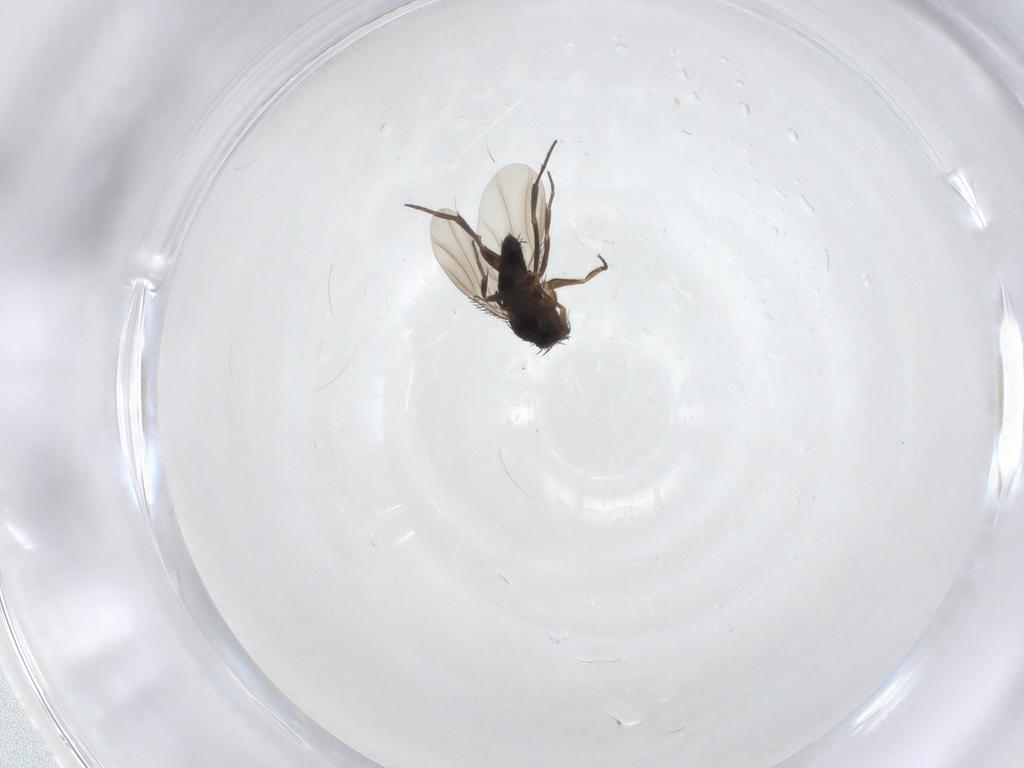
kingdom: Animalia
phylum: Arthropoda
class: Insecta
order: Diptera
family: Phoridae
